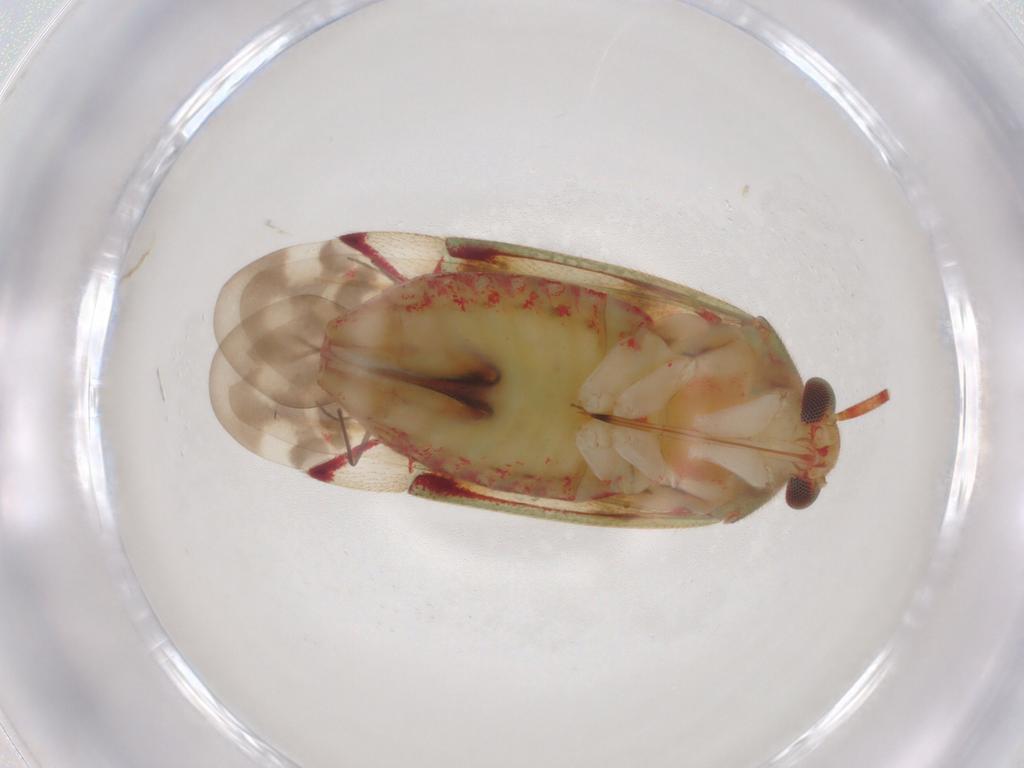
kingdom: Animalia
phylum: Arthropoda
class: Insecta
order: Hemiptera
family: Miridae
